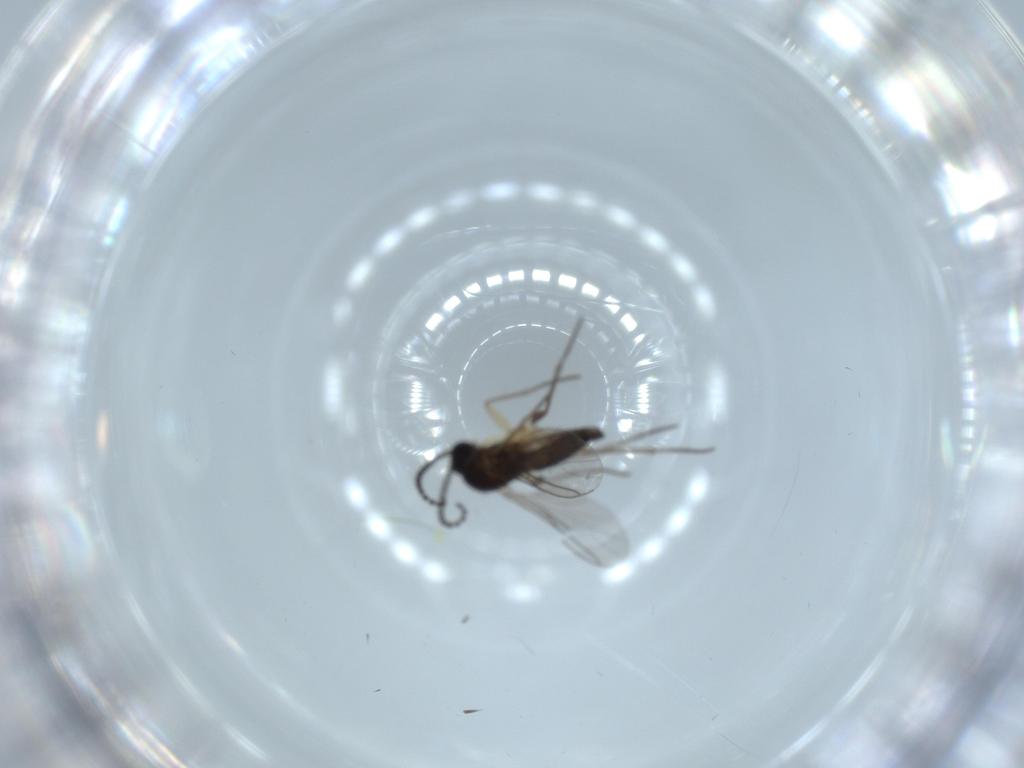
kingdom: Animalia
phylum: Arthropoda
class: Insecta
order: Diptera
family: Sciaridae
